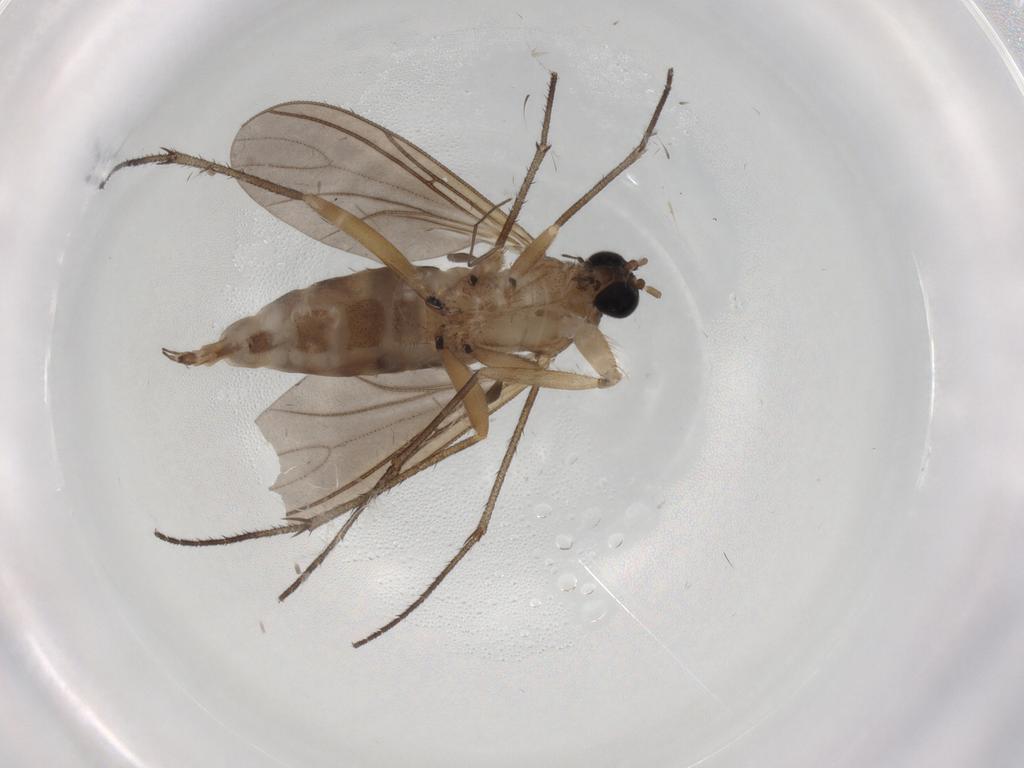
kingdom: Animalia
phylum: Arthropoda
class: Insecta
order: Diptera
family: Sciaridae
